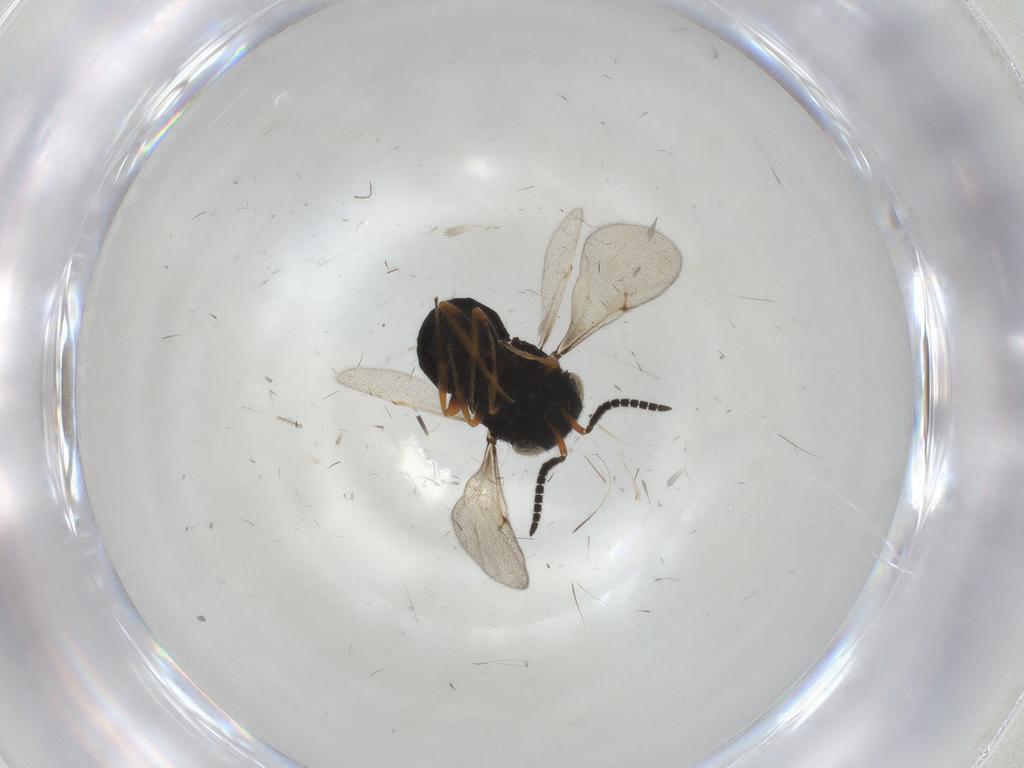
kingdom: Animalia
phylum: Arthropoda
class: Insecta
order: Hymenoptera
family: Scelionidae
